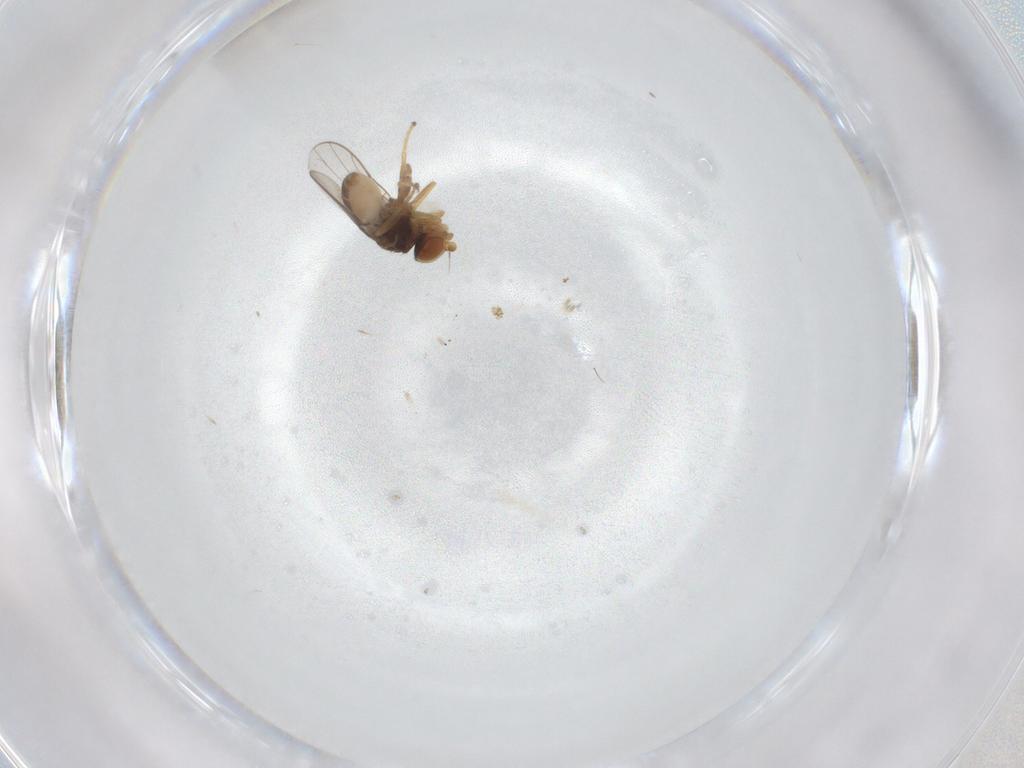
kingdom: Animalia
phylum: Arthropoda
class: Insecta
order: Diptera
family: Chloropidae
